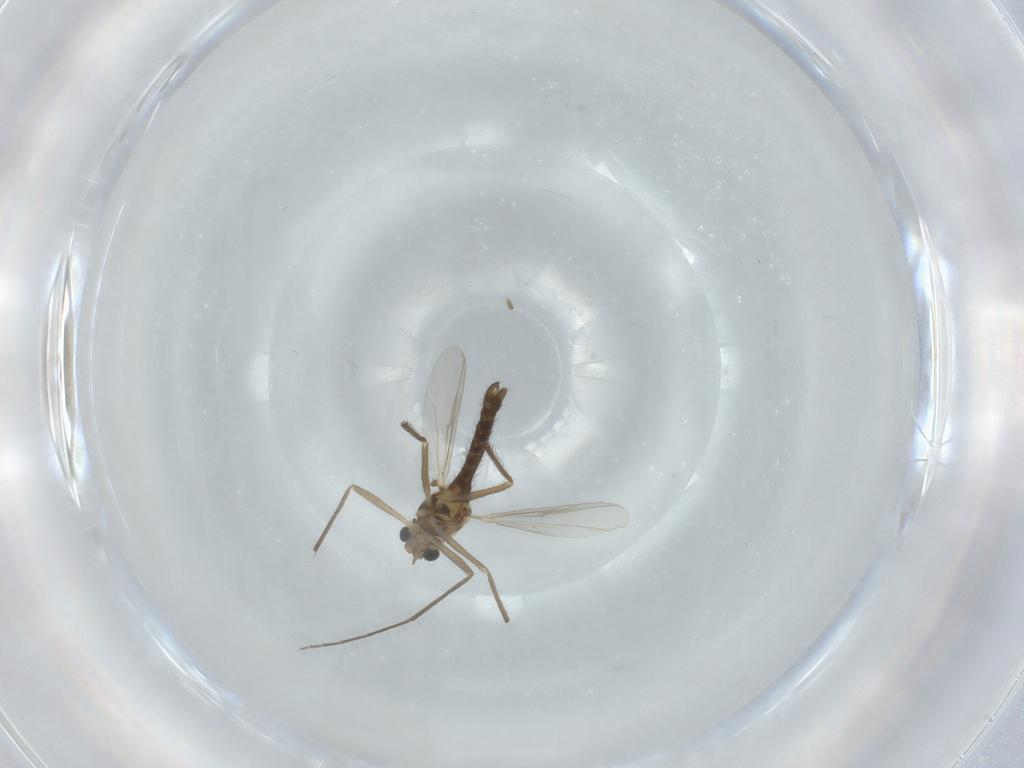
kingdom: Animalia
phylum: Arthropoda
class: Insecta
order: Diptera
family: Chironomidae
